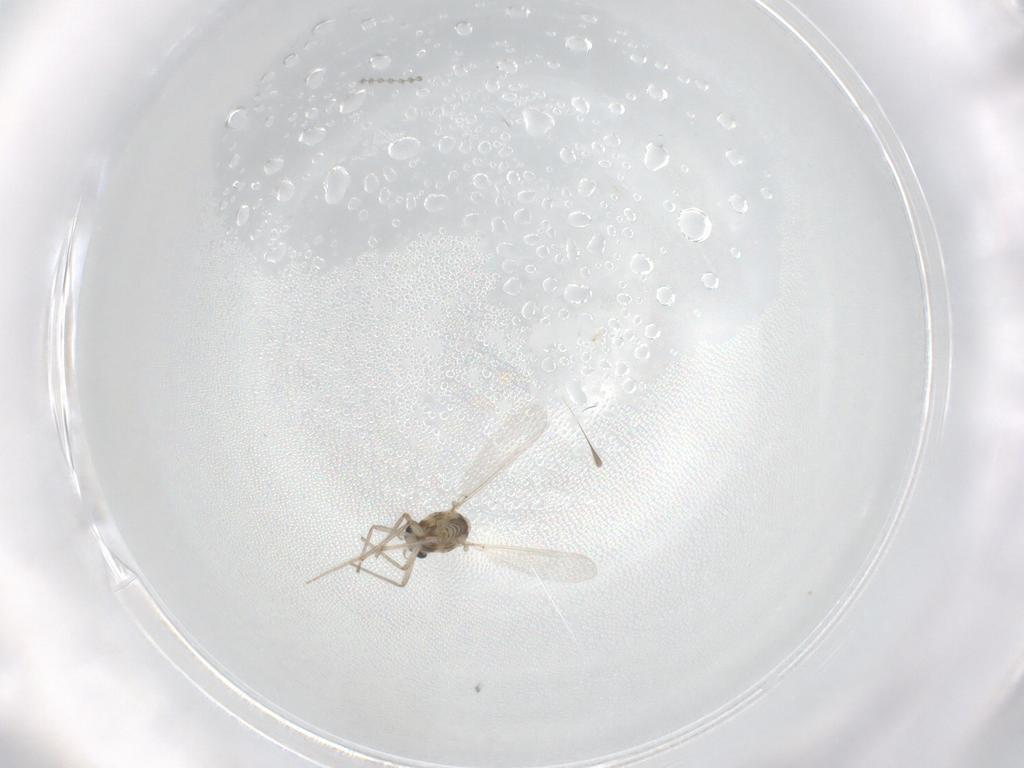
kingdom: Animalia
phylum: Arthropoda
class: Insecta
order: Diptera
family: Chironomidae
